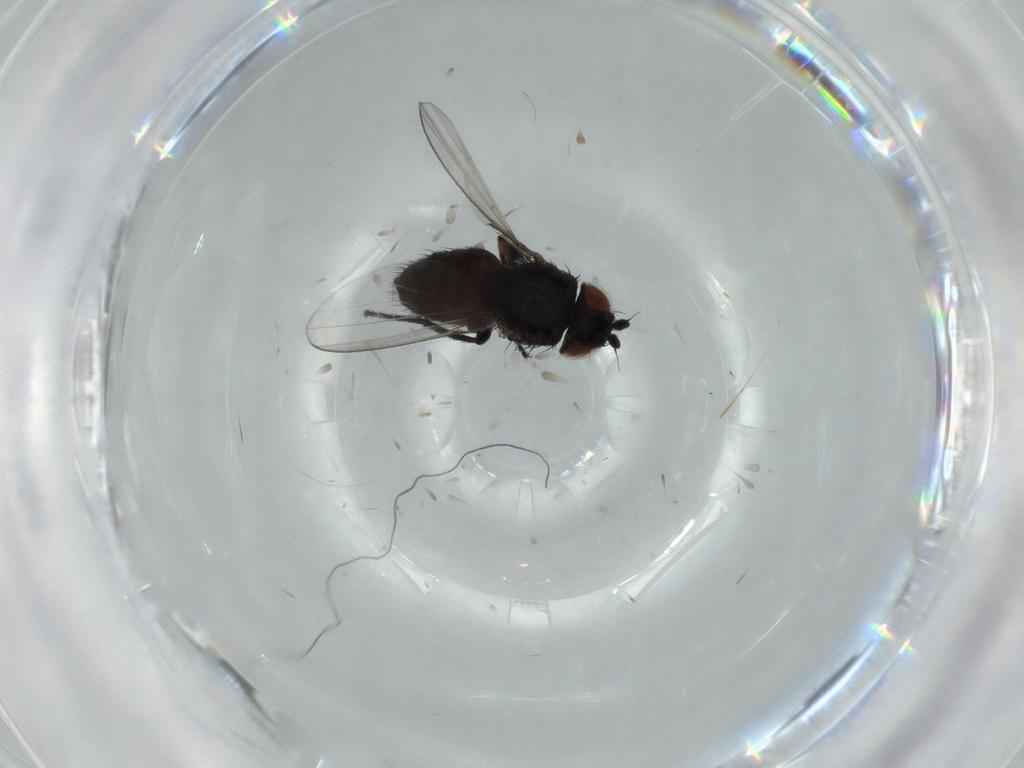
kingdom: Animalia
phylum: Arthropoda
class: Insecta
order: Diptera
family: Milichiidae
